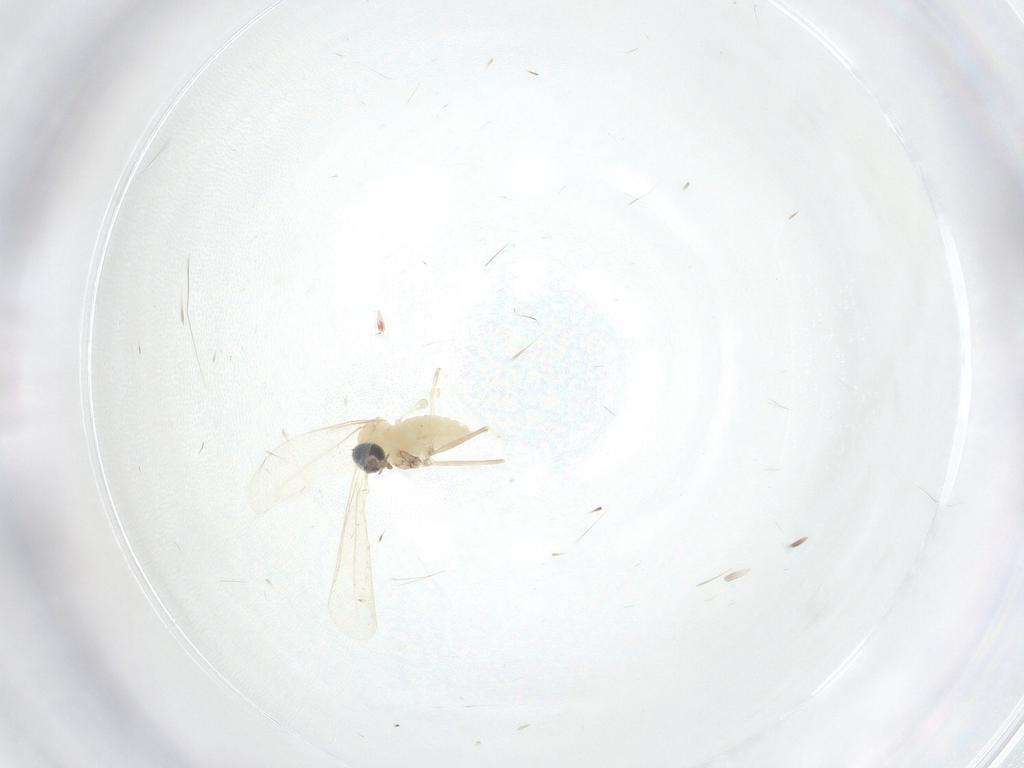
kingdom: Animalia
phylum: Arthropoda
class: Insecta
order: Diptera
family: Cecidomyiidae
